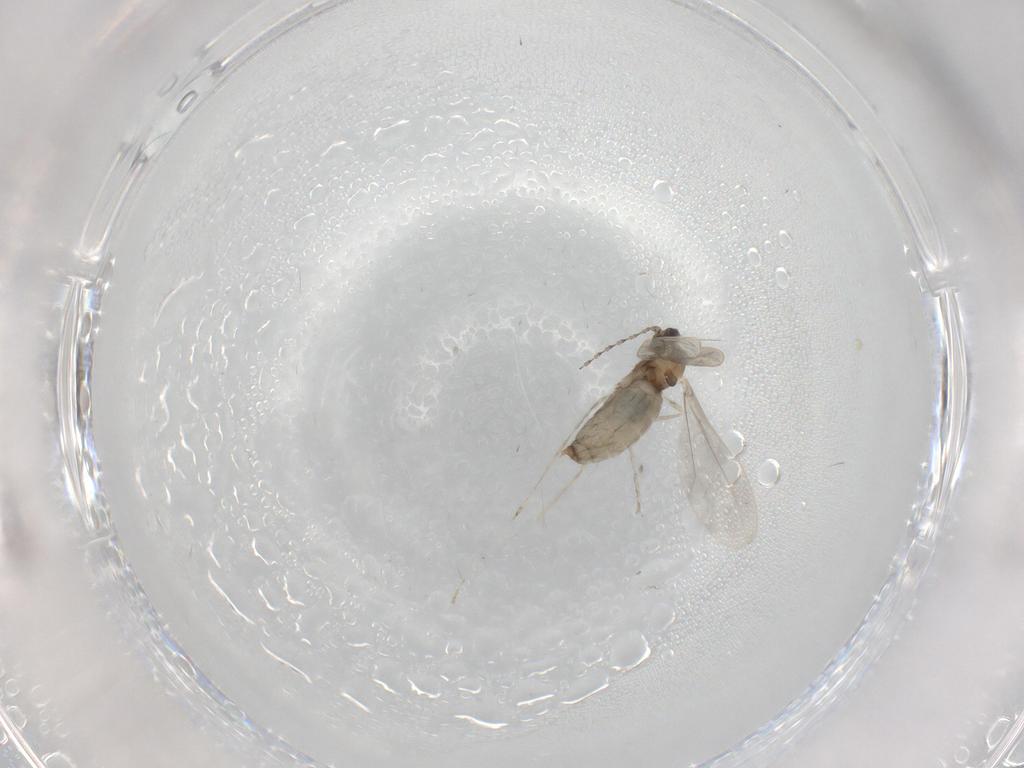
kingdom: Animalia
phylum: Arthropoda
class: Insecta
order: Diptera
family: Cecidomyiidae
